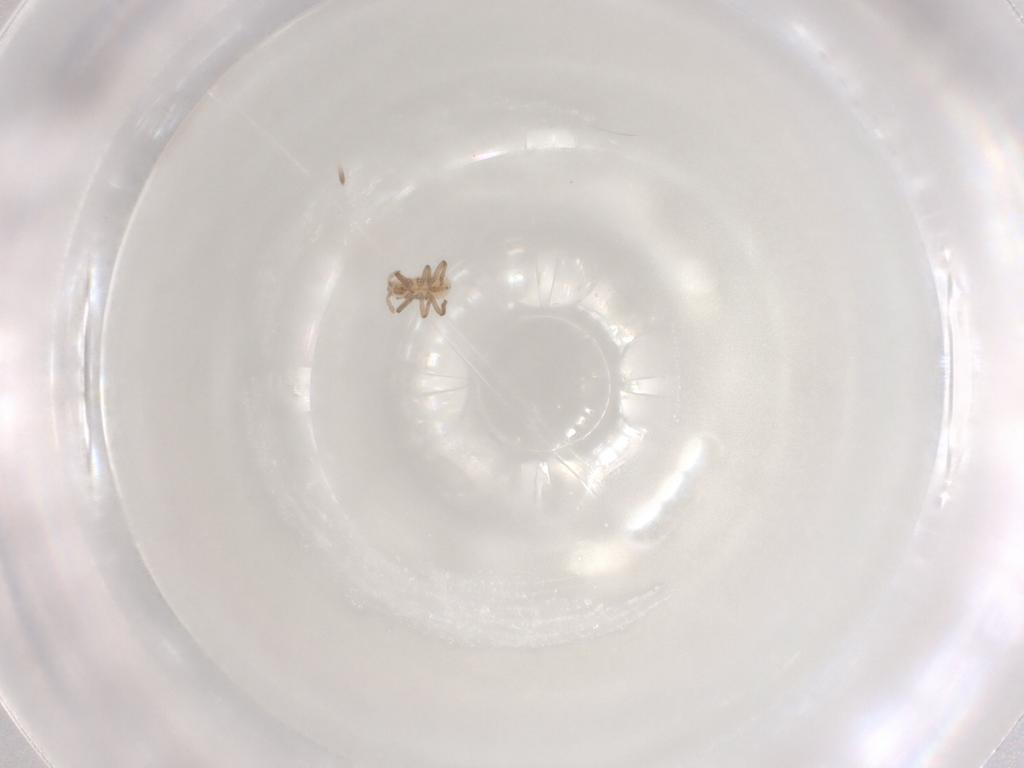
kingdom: Animalia
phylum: Arthropoda
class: Insecta
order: Hemiptera
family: Aphididae
